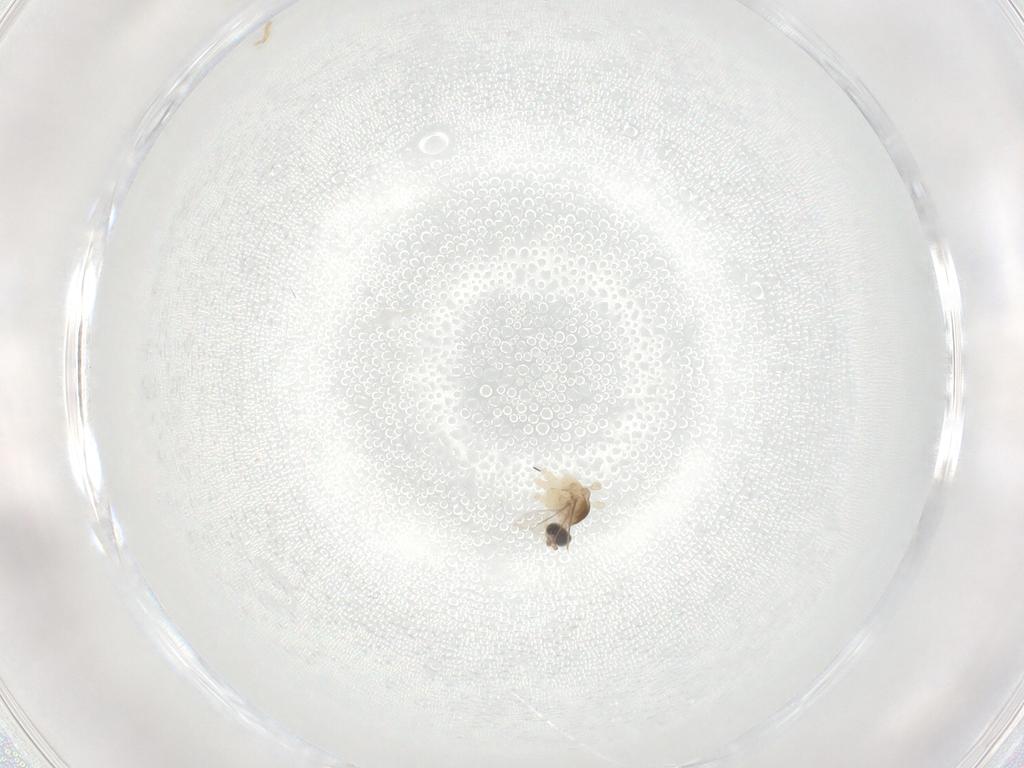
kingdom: Animalia
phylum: Arthropoda
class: Insecta
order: Diptera
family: Cecidomyiidae
